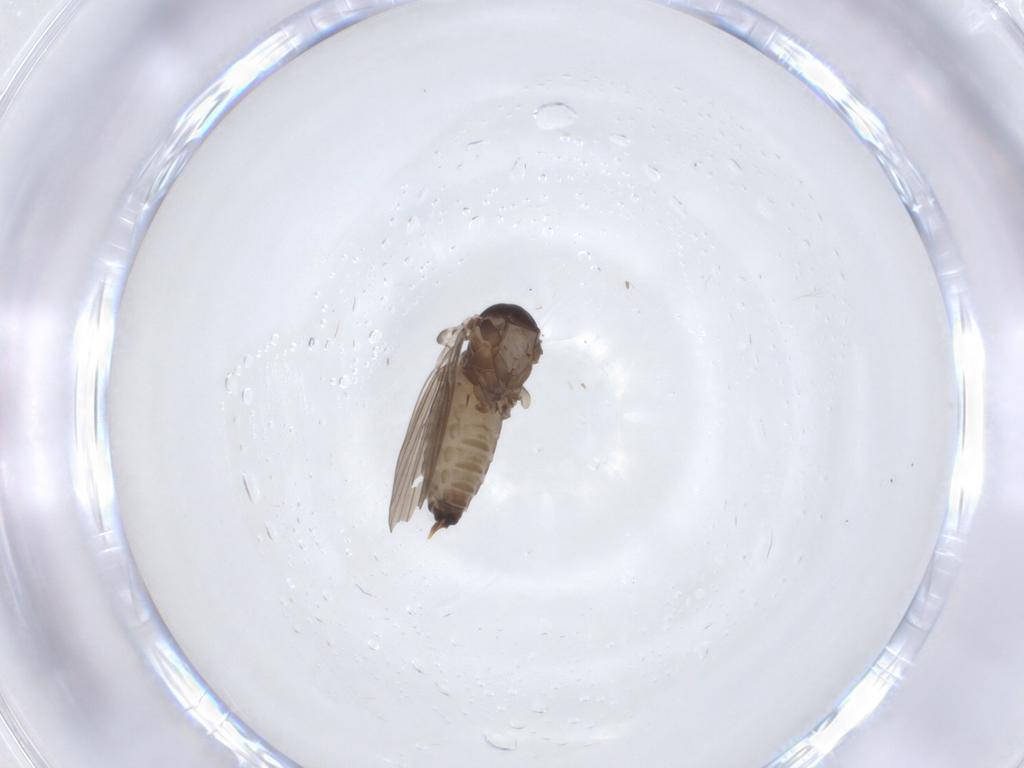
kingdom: Animalia
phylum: Arthropoda
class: Insecta
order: Diptera
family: Psychodidae
